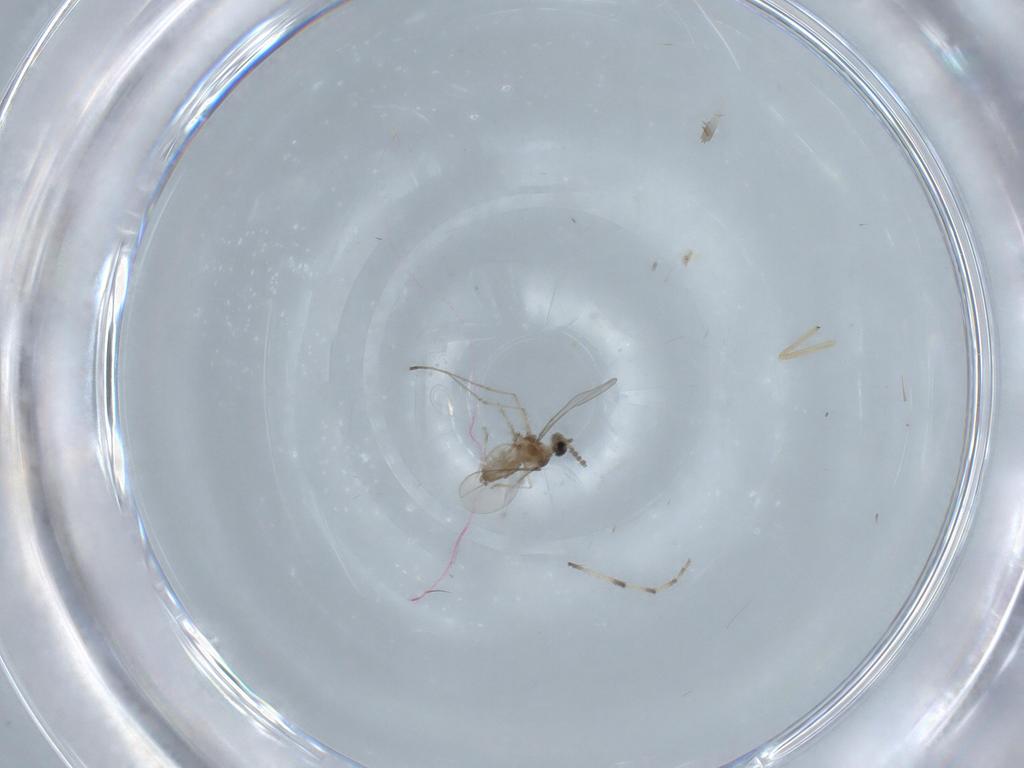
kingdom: Animalia
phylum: Arthropoda
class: Insecta
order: Diptera
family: Cecidomyiidae
